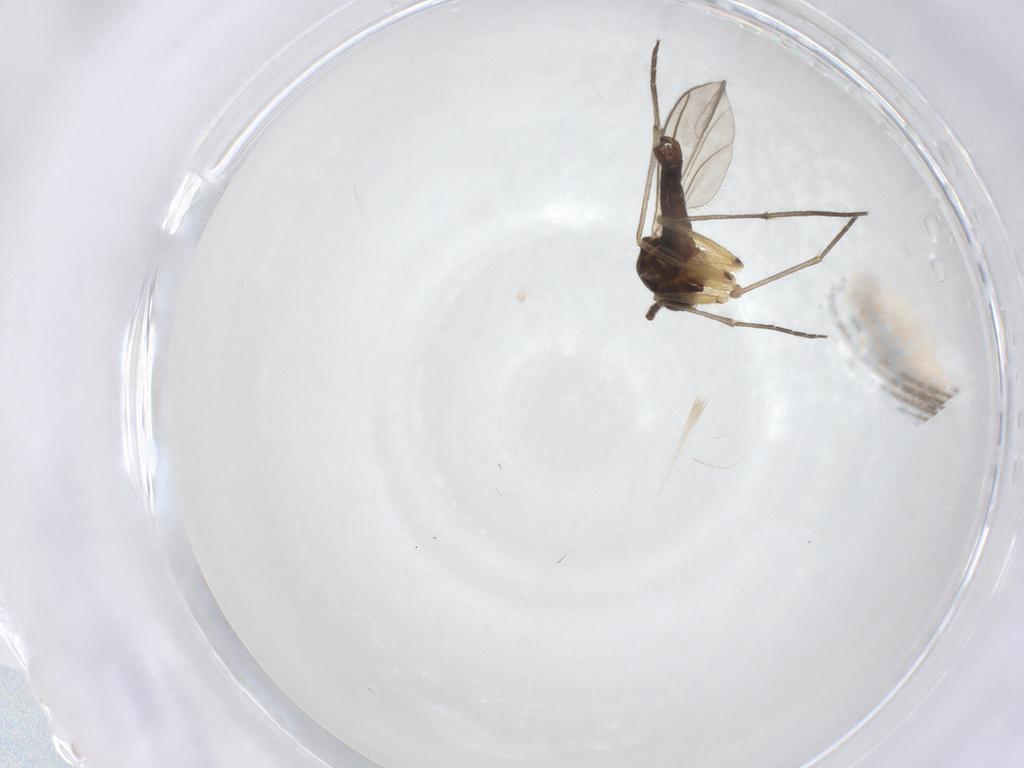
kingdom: Animalia
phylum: Arthropoda
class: Insecta
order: Diptera
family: Sciaridae
